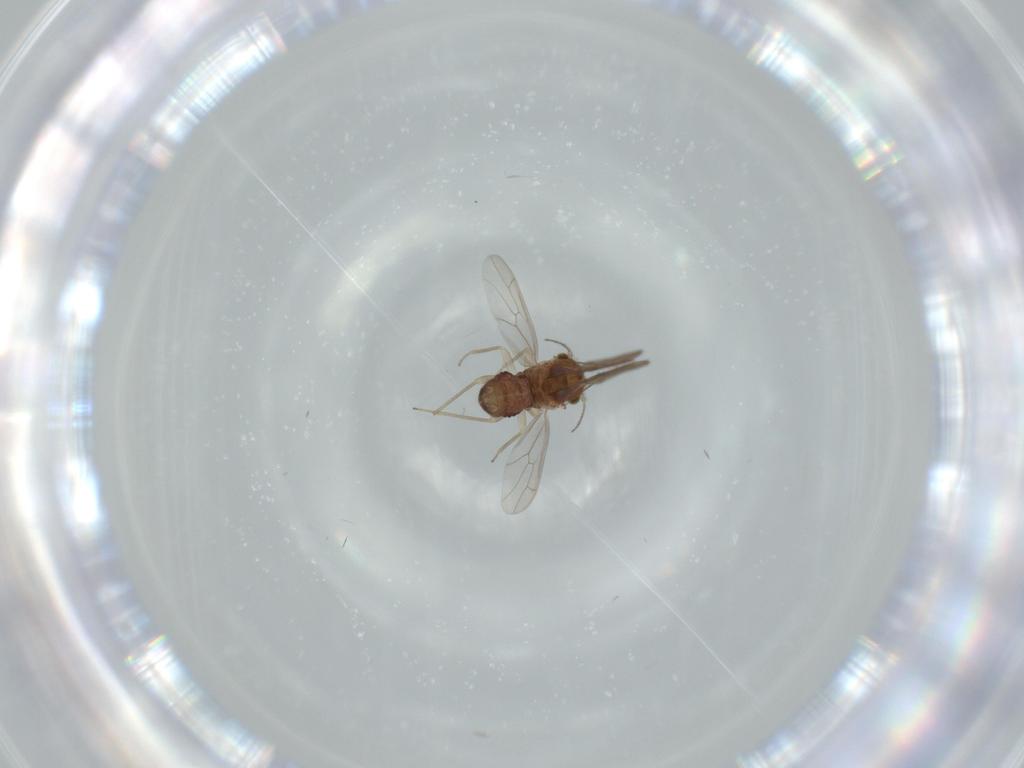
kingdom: Animalia
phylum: Arthropoda
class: Insecta
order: Psocodea
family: Ectopsocidae
